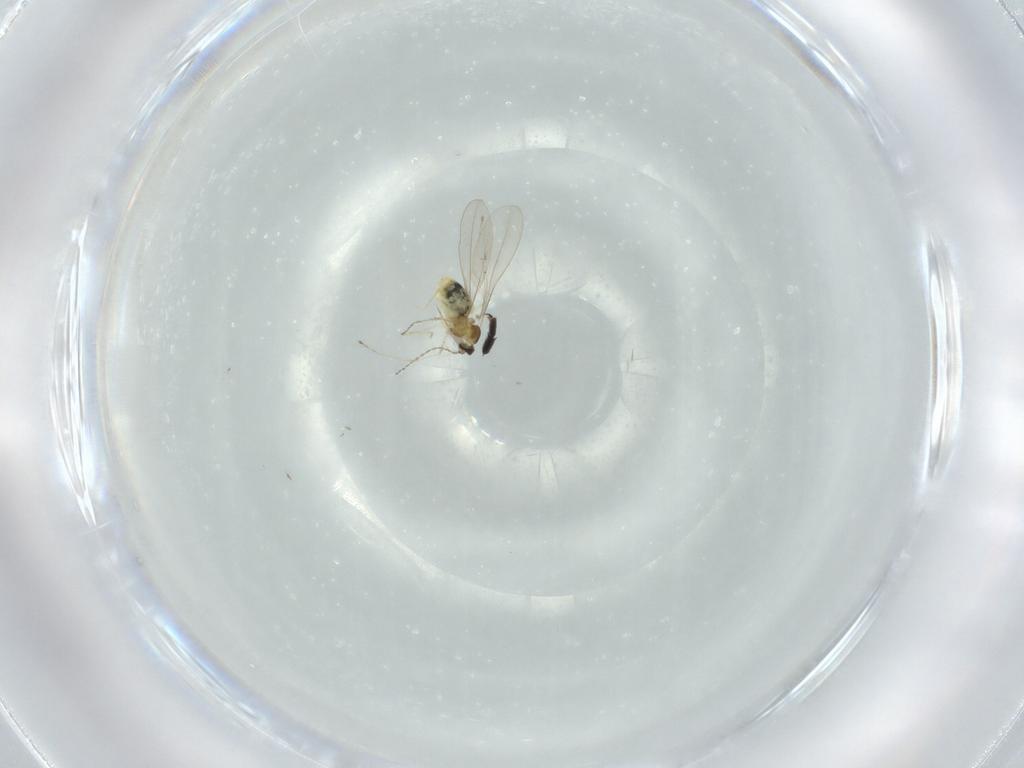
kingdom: Animalia
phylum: Arthropoda
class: Insecta
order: Diptera
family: Cecidomyiidae
